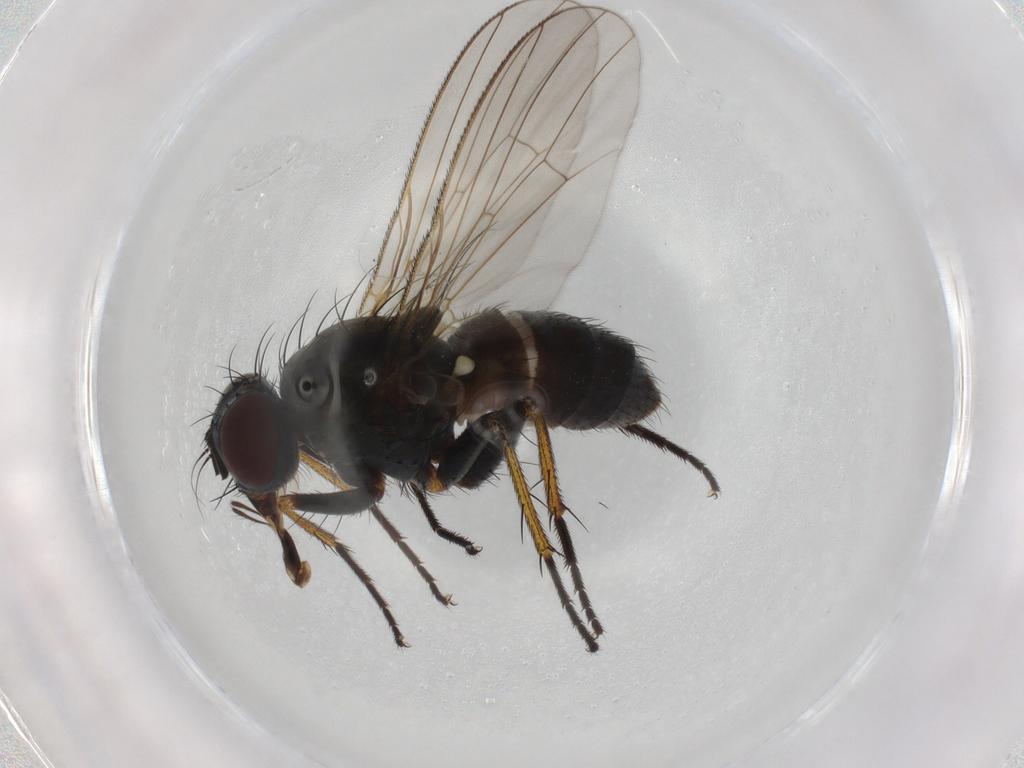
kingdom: Animalia
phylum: Arthropoda
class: Insecta
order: Diptera
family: Muscidae
